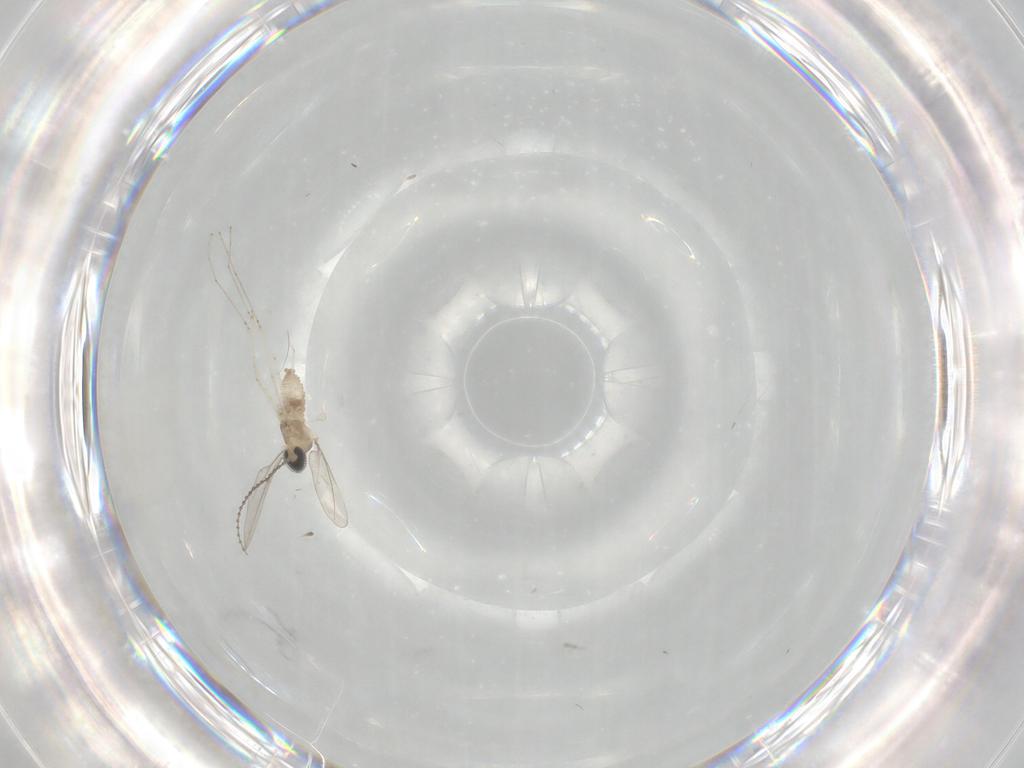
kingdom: Animalia
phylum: Arthropoda
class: Insecta
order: Diptera
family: Cecidomyiidae
